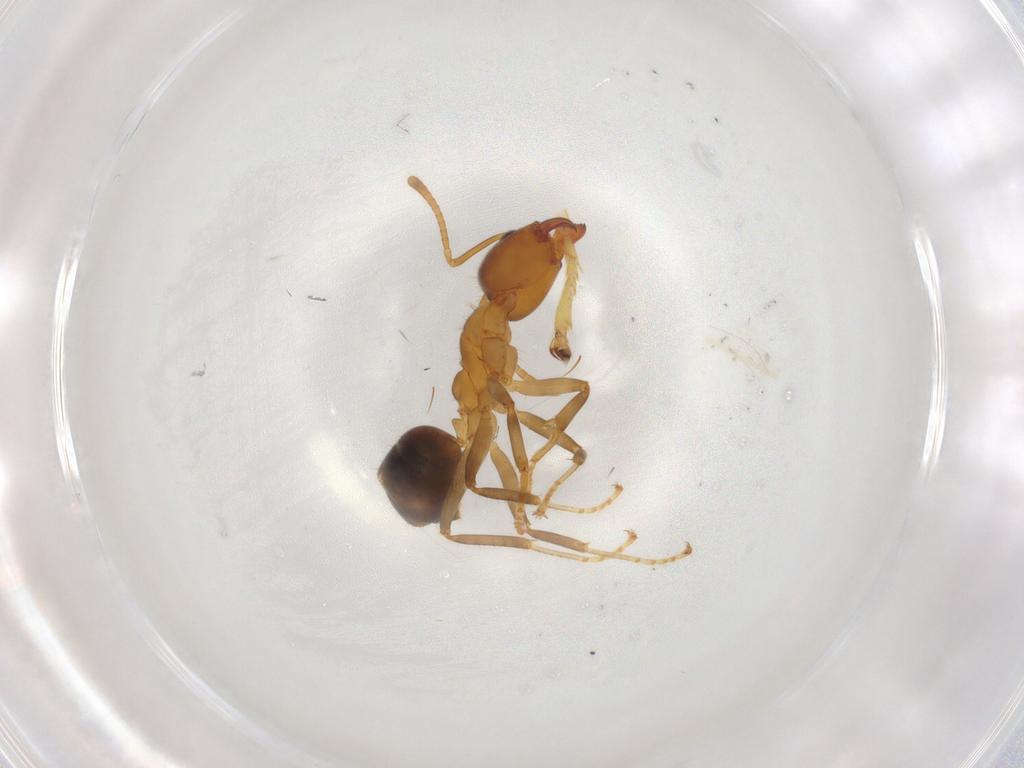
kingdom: Animalia
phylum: Arthropoda
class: Insecta
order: Hymenoptera
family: Formicidae
